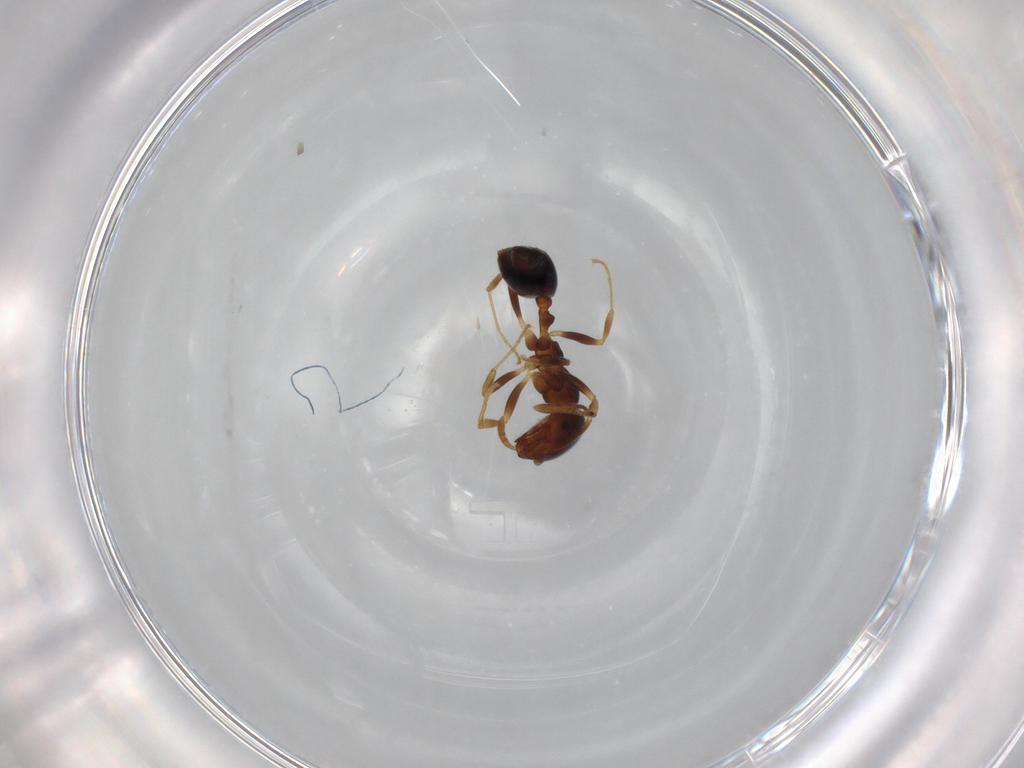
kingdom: Animalia
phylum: Arthropoda
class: Insecta
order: Hymenoptera
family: Formicidae
